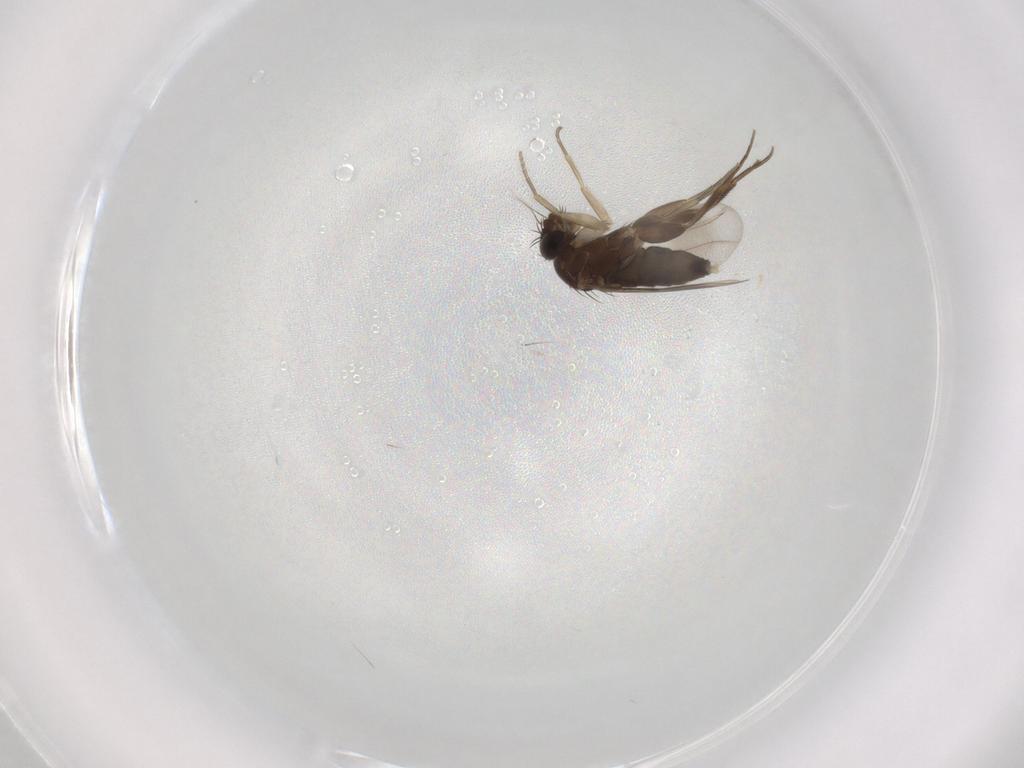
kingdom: Animalia
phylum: Arthropoda
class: Insecta
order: Diptera
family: Phoridae
